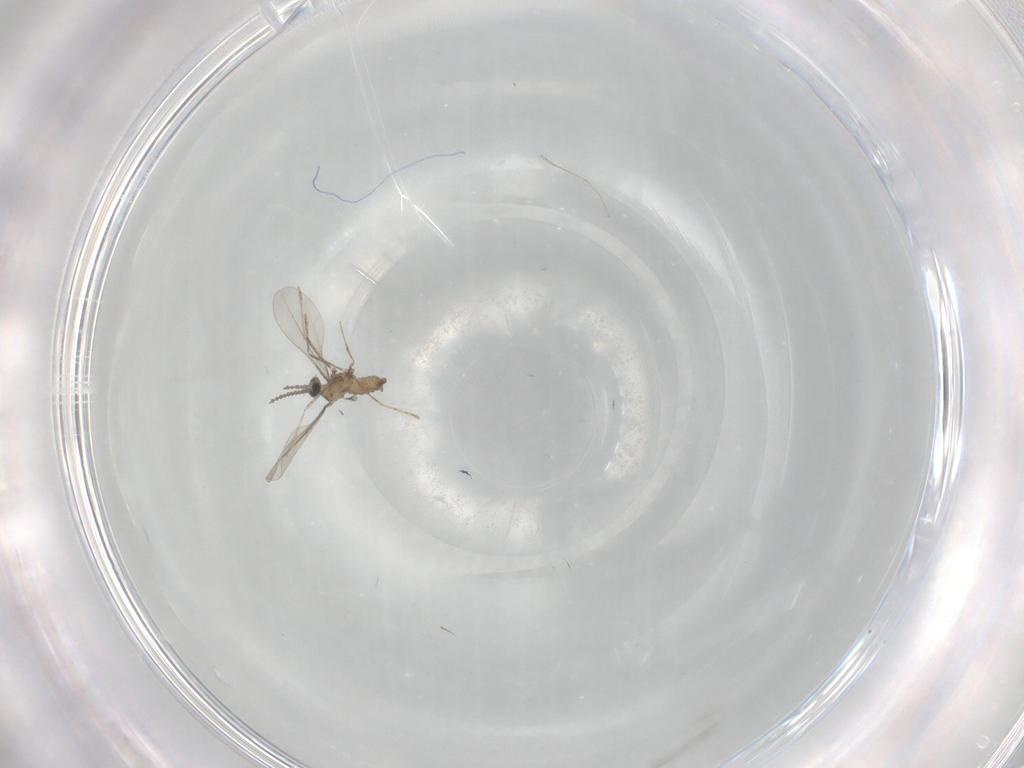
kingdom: Animalia
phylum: Arthropoda
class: Insecta
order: Diptera
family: Cecidomyiidae
